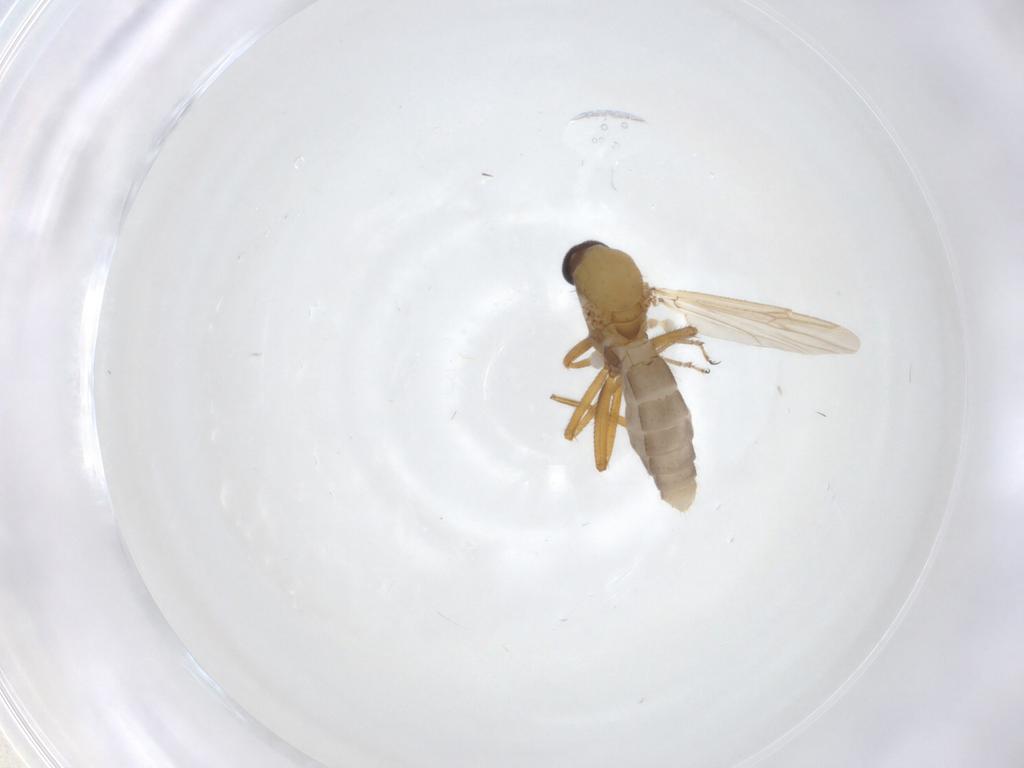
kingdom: Animalia
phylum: Arthropoda
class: Insecta
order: Diptera
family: Ceratopogonidae
